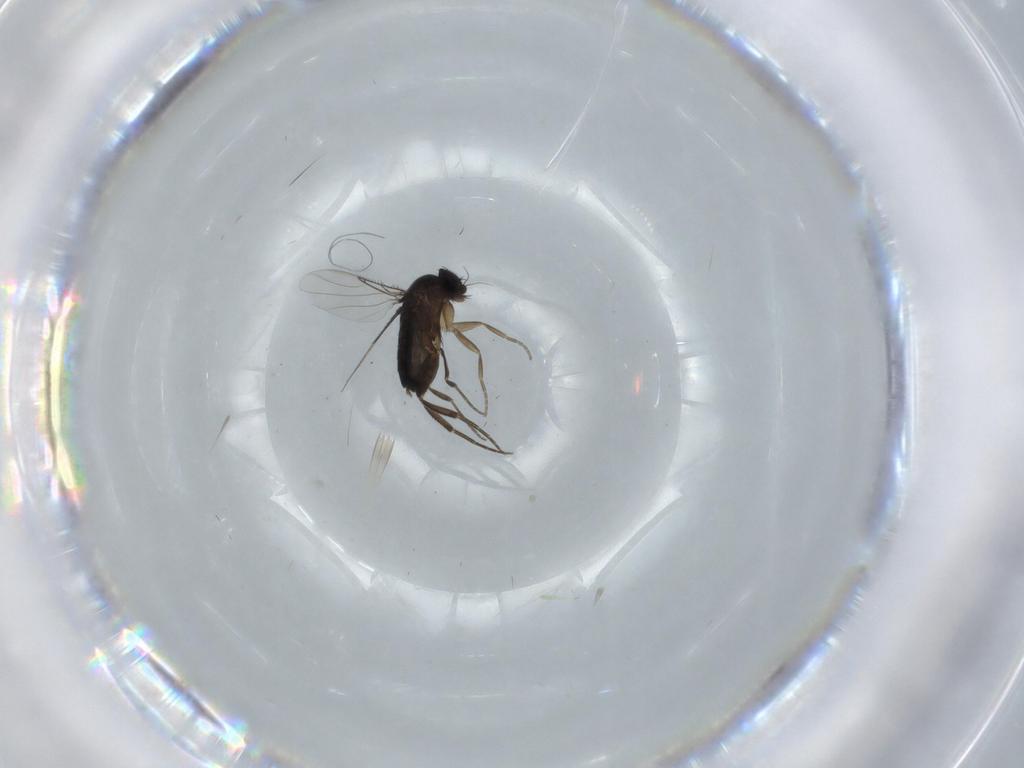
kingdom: Animalia
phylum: Arthropoda
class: Insecta
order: Diptera
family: Phoridae
